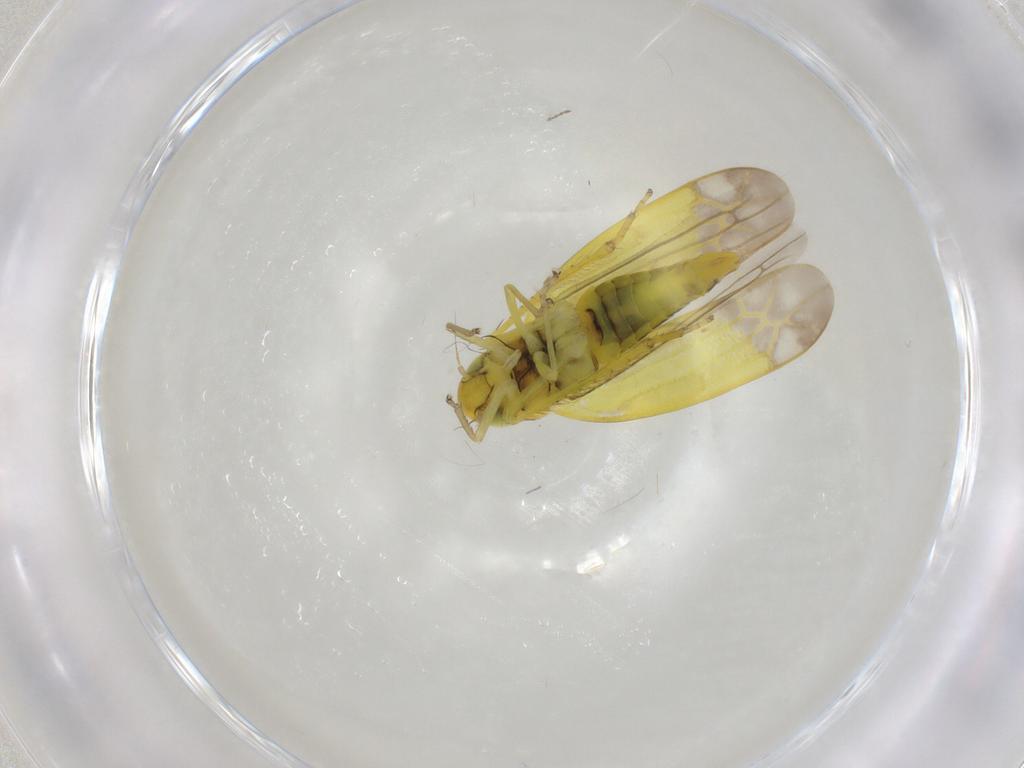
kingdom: Animalia
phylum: Arthropoda
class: Insecta
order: Hemiptera
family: Cicadellidae
